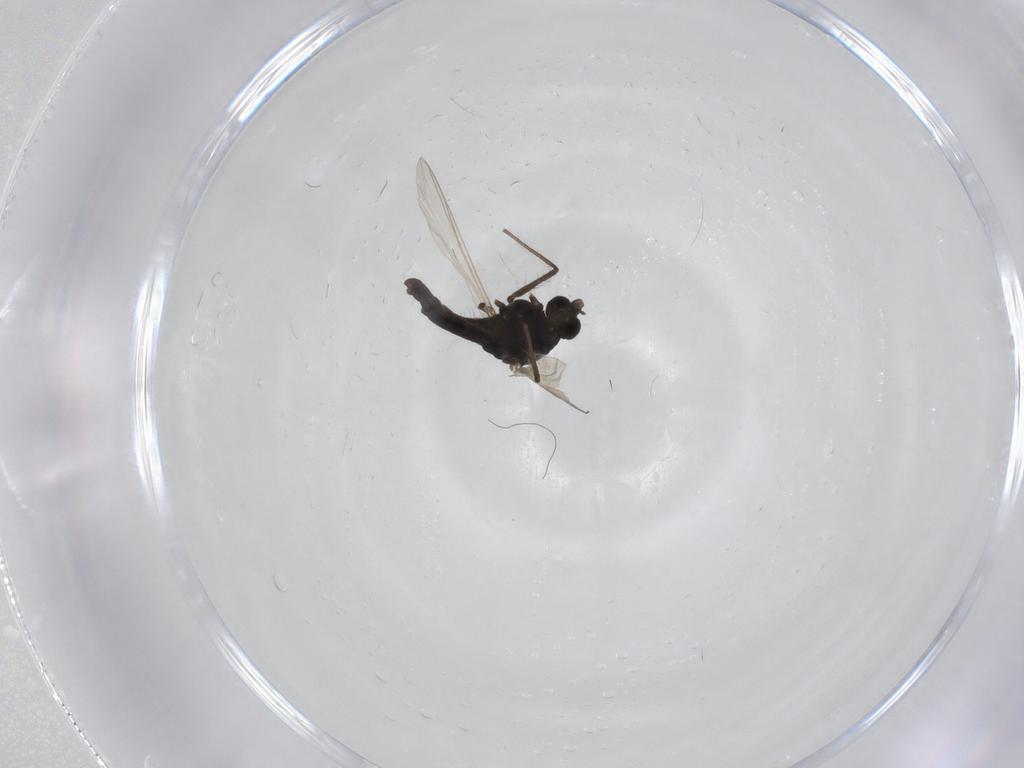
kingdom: Animalia
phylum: Arthropoda
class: Insecta
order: Diptera
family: Chironomidae
